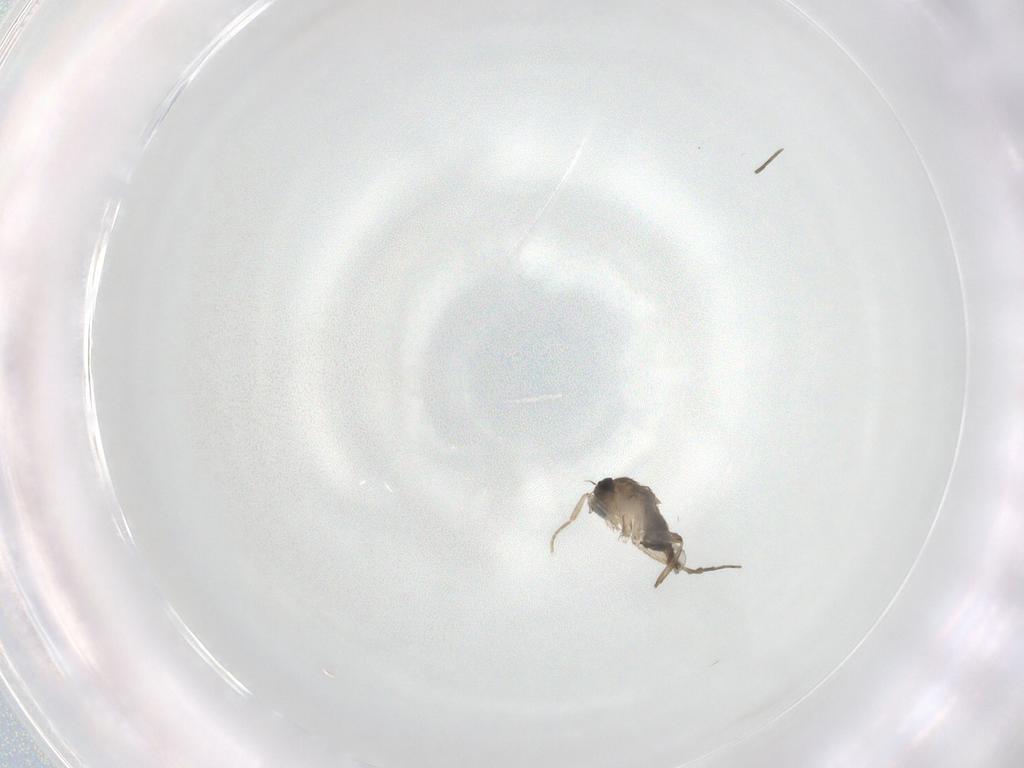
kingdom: Animalia
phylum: Arthropoda
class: Insecta
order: Diptera
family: Phoridae
